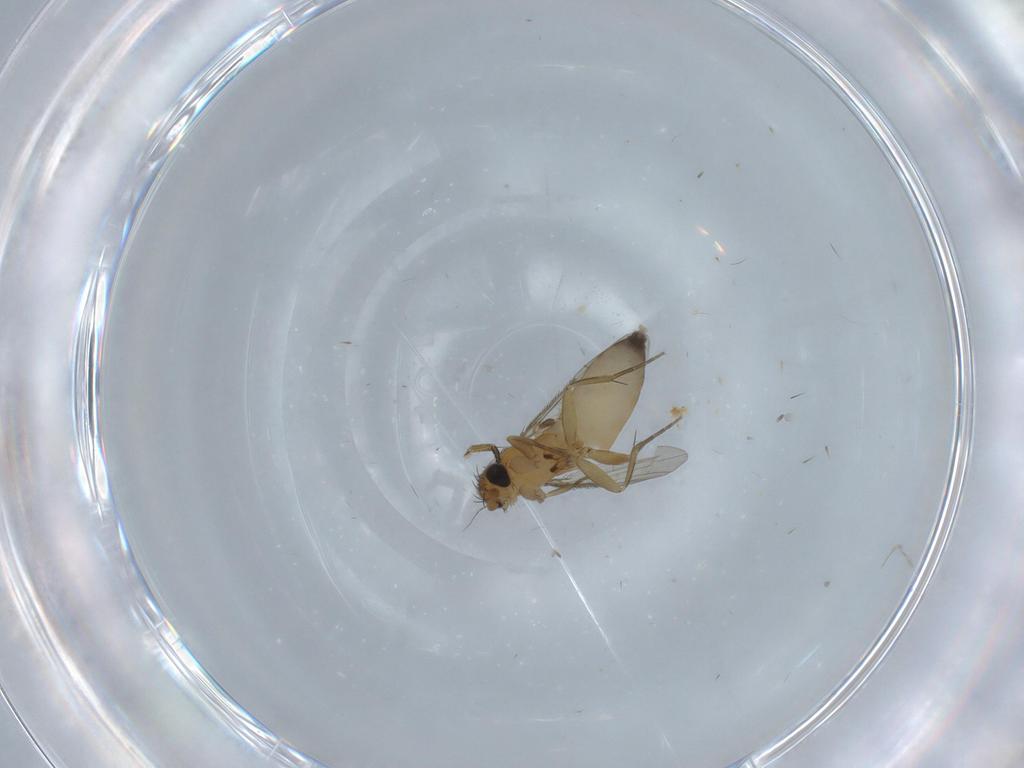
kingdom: Animalia
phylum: Arthropoda
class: Insecta
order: Diptera
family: Phoridae
